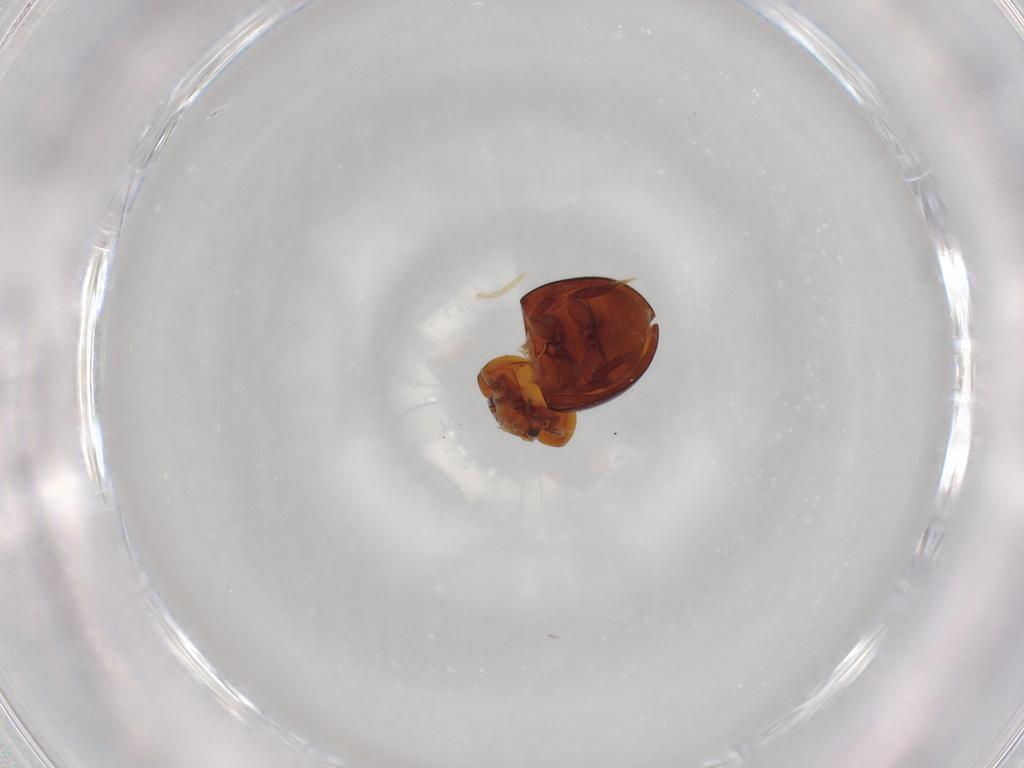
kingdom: Animalia
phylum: Arthropoda
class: Insecta
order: Coleoptera
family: Hydrophilidae
